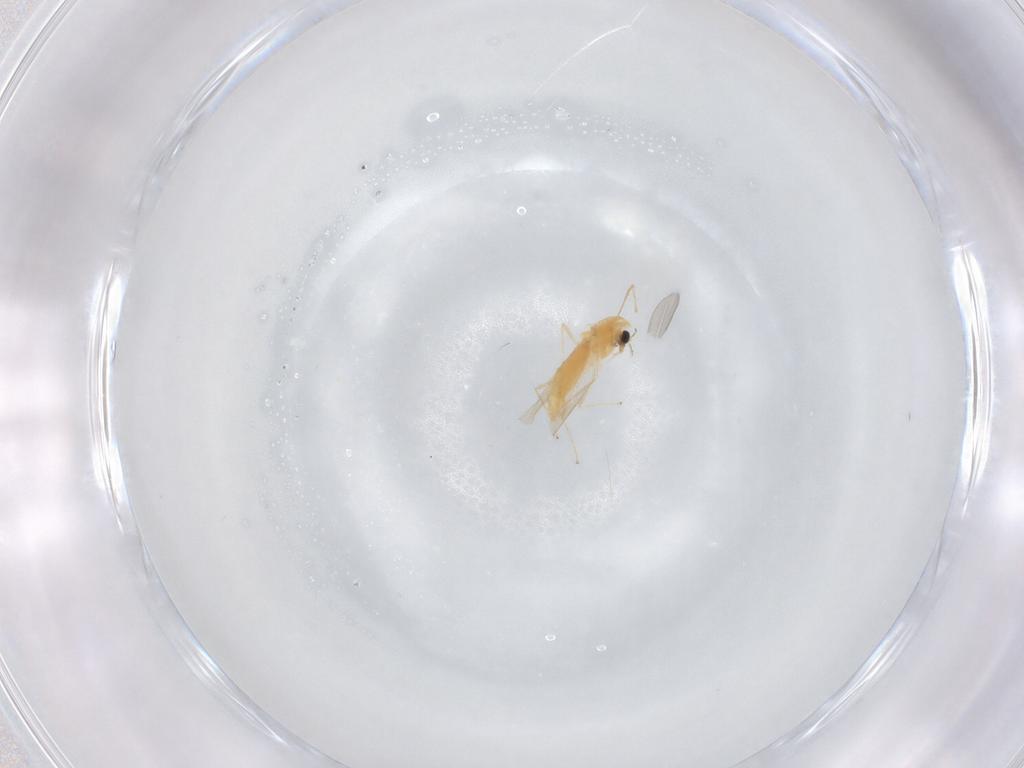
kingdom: Animalia
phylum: Arthropoda
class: Insecta
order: Diptera
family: Chironomidae
